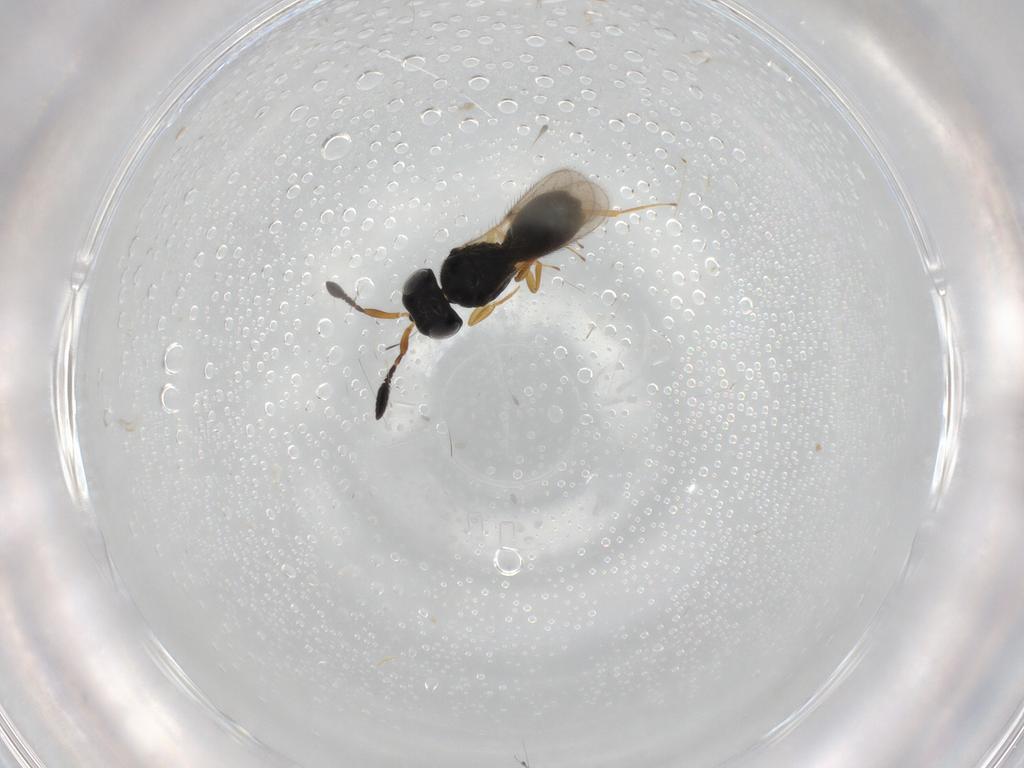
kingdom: Animalia
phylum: Arthropoda
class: Insecta
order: Hymenoptera
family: Scelionidae
